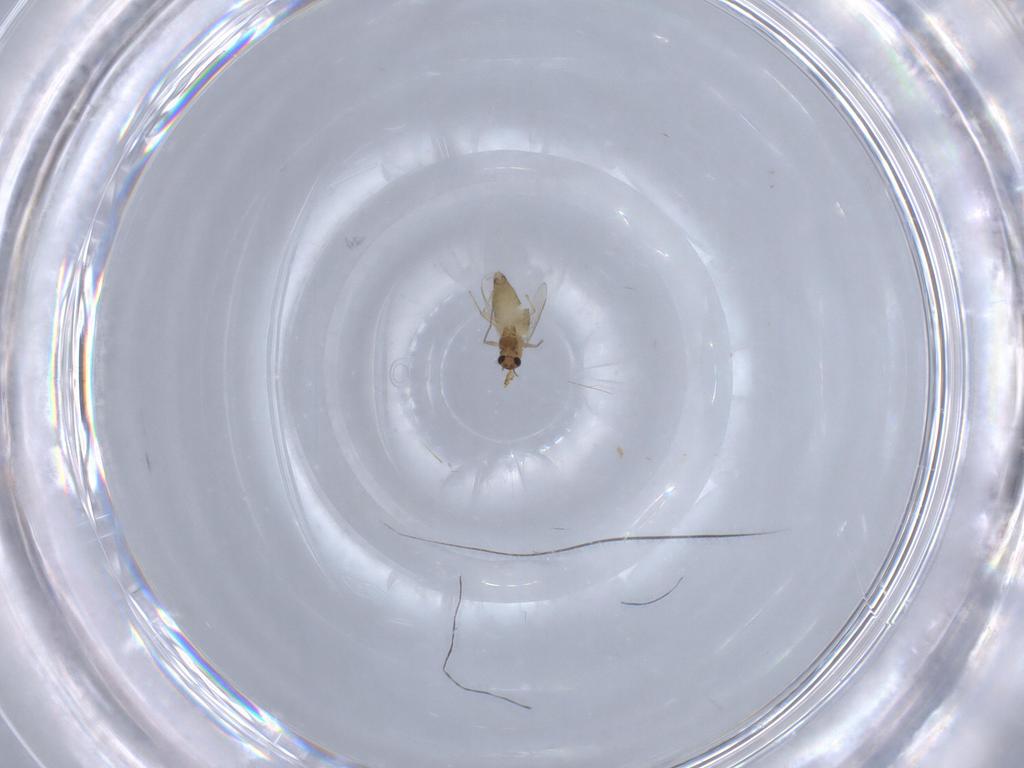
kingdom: Animalia
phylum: Arthropoda
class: Insecta
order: Diptera
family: Chironomidae
